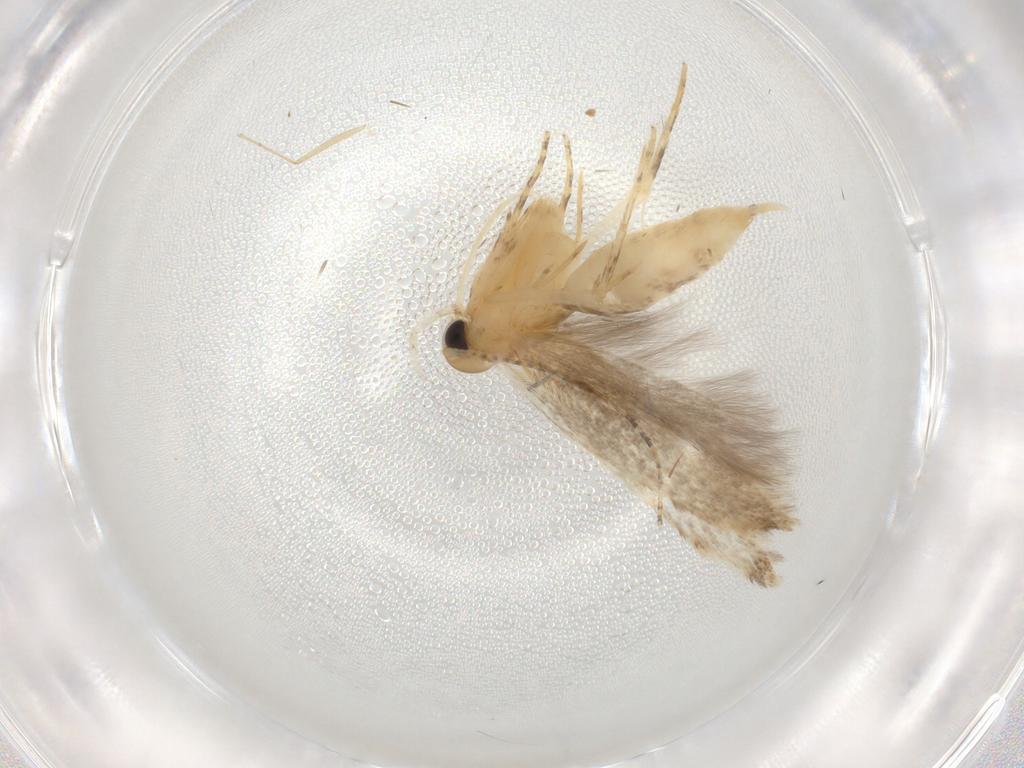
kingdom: Animalia
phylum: Arthropoda
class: Insecta
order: Lepidoptera
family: Gelechiidae
